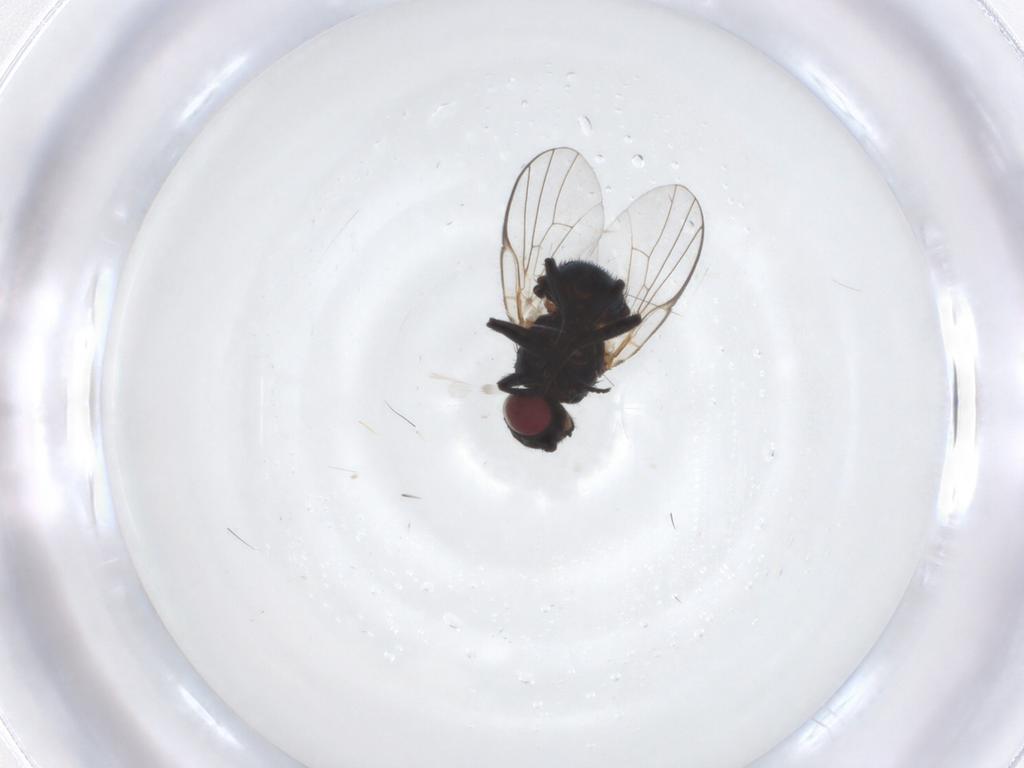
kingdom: Animalia
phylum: Arthropoda
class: Insecta
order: Diptera
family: Agromyzidae
